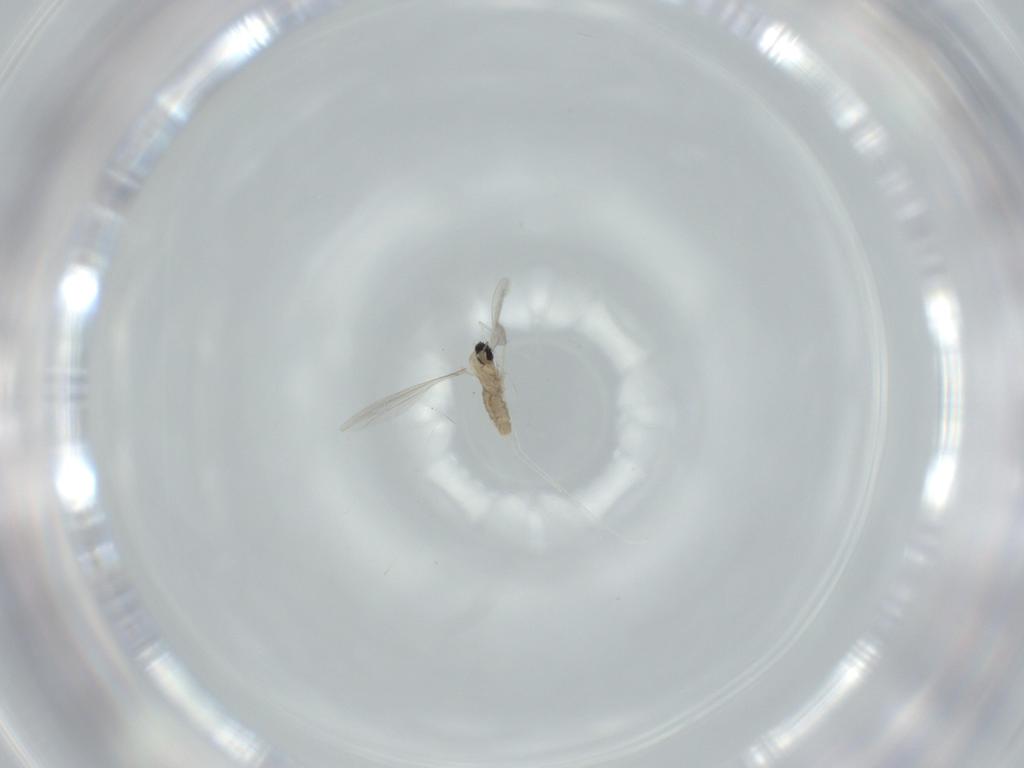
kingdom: Animalia
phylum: Arthropoda
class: Insecta
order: Diptera
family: Cecidomyiidae
